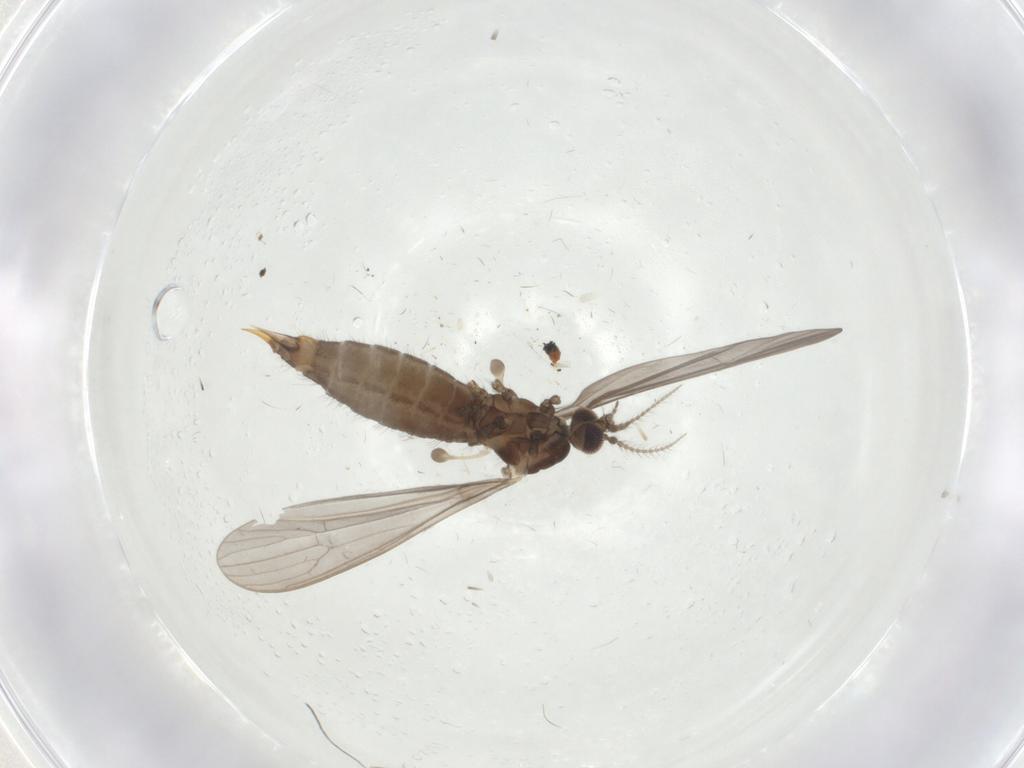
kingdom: Animalia
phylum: Arthropoda
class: Insecta
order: Diptera
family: Limoniidae
